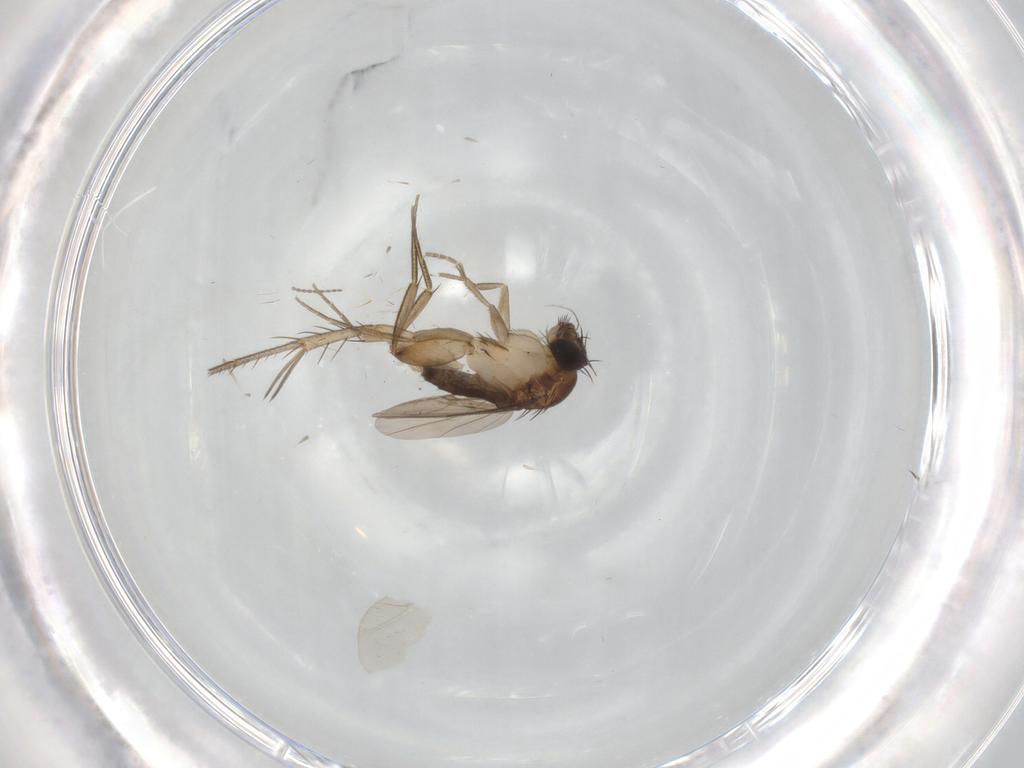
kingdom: Animalia
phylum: Arthropoda
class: Insecta
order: Diptera
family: Phoridae
